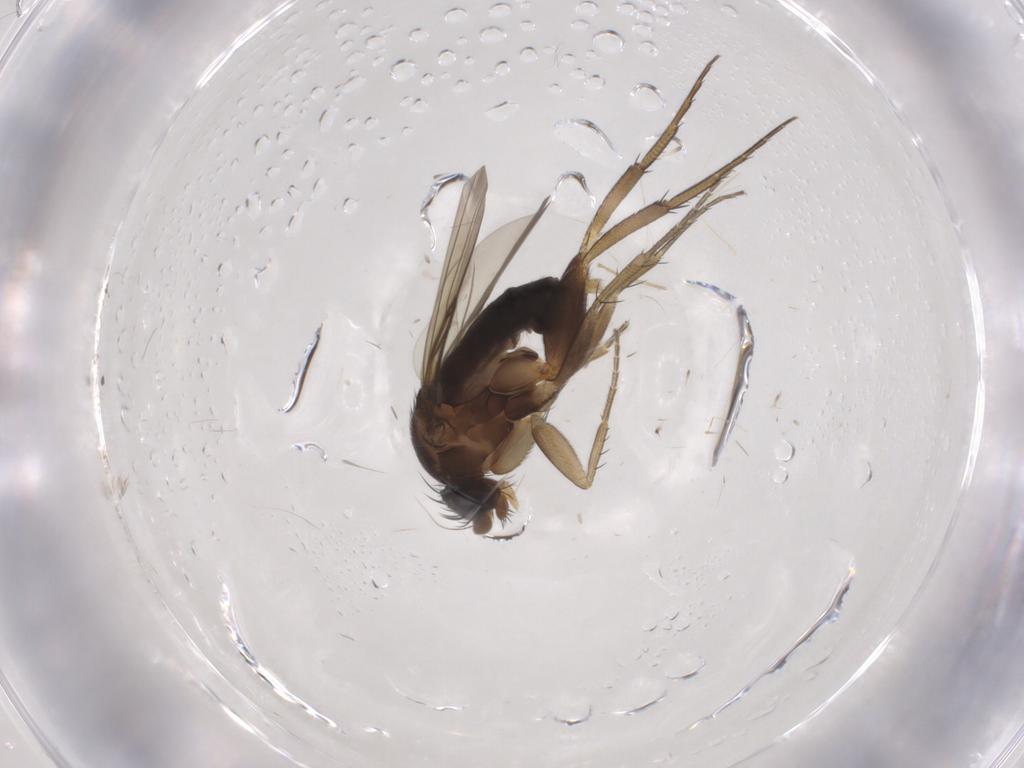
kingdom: Animalia
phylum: Arthropoda
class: Insecta
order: Diptera
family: Phoridae
